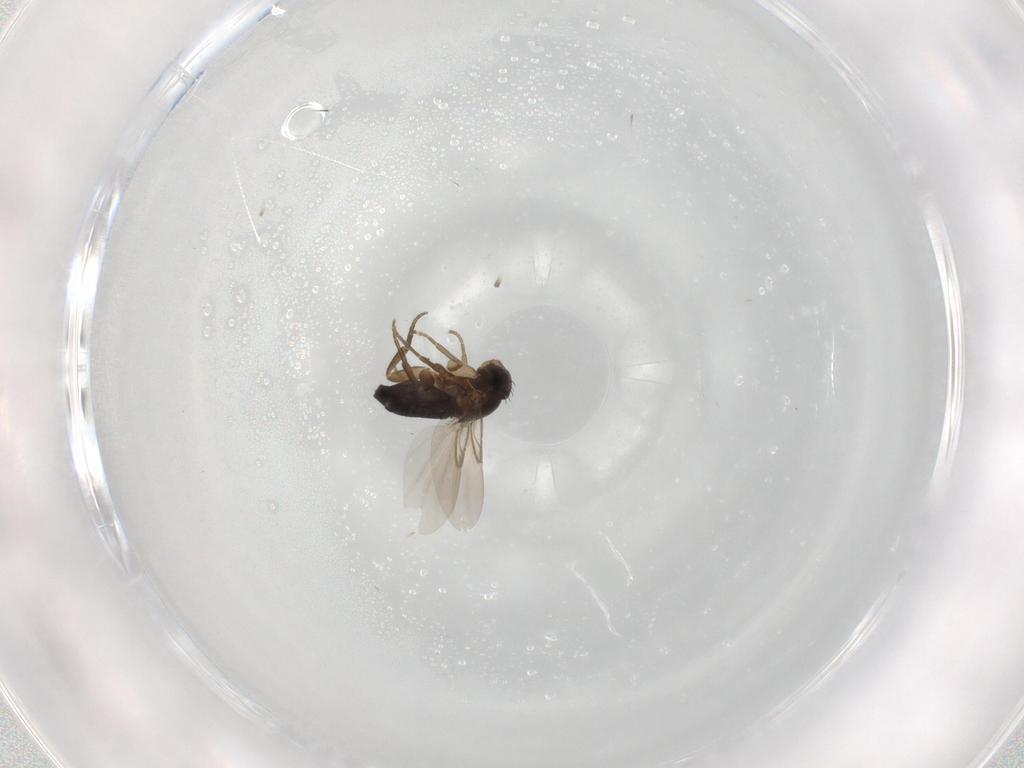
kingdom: Animalia
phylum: Arthropoda
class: Insecta
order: Diptera
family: Phoridae
